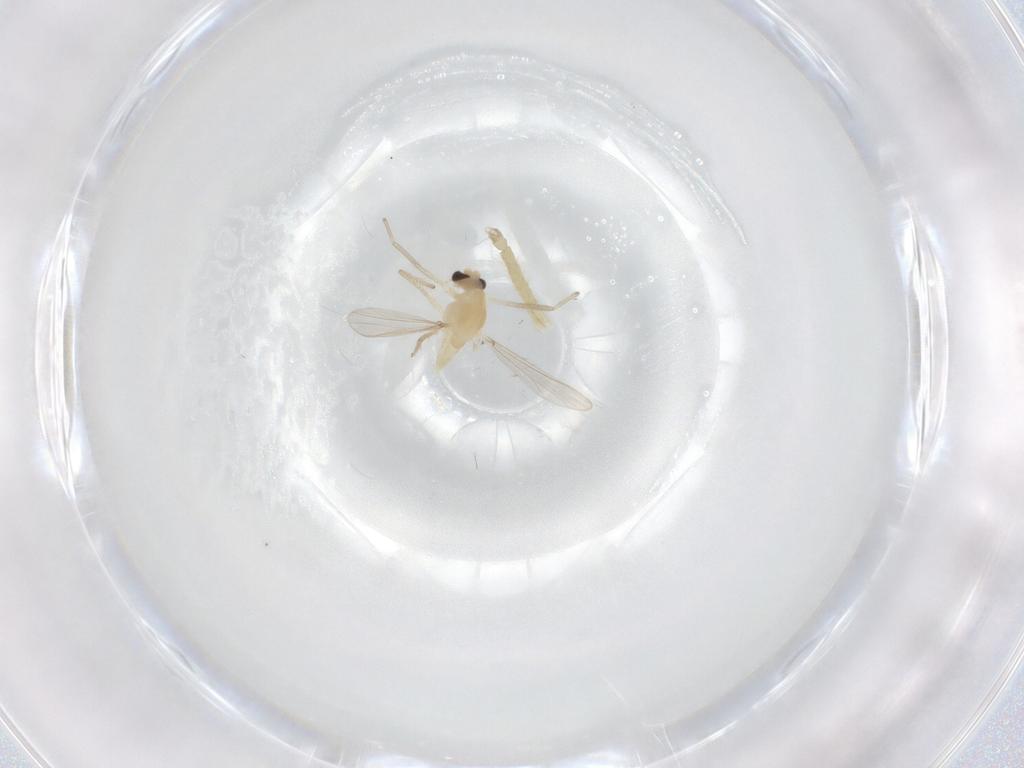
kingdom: Animalia
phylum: Arthropoda
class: Insecta
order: Diptera
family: Chironomidae
